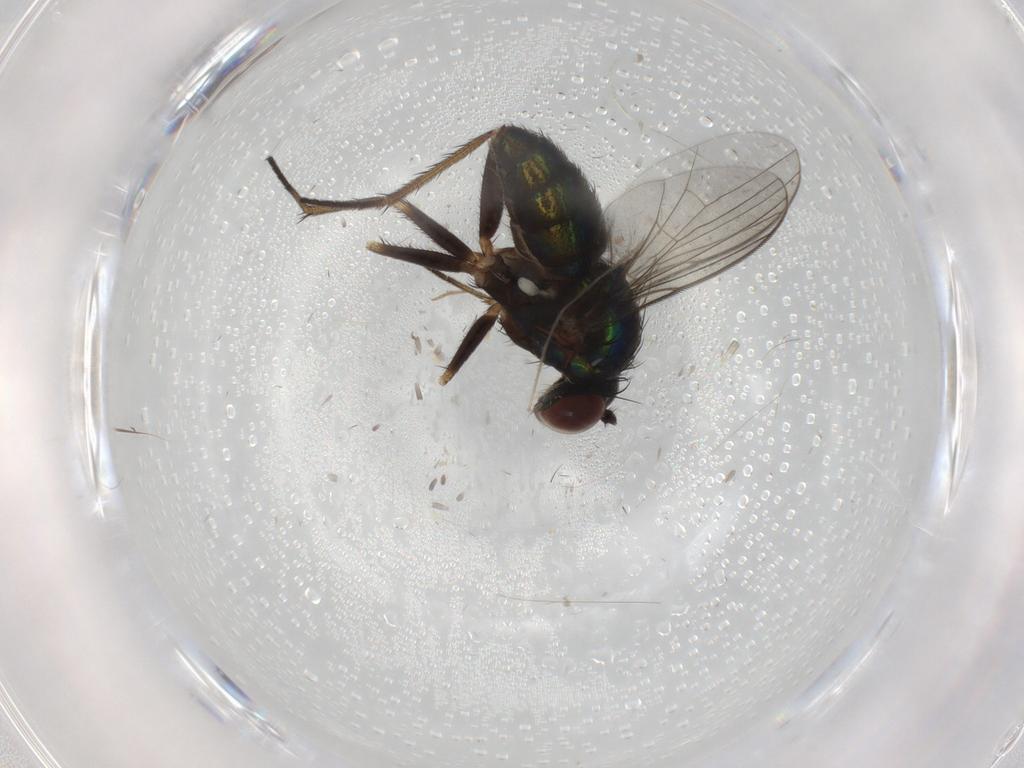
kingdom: Animalia
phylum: Arthropoda
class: Insecta
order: Diptera
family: Dolichopodidae
